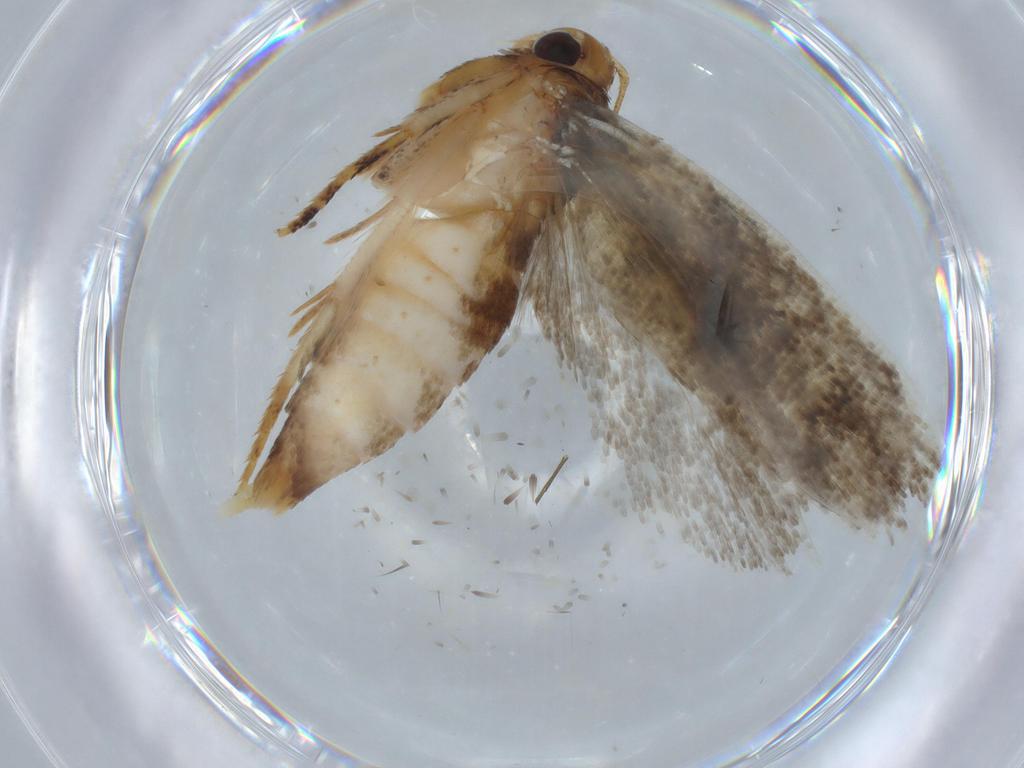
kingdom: Animalia
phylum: Arthropoda
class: Insecta
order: Lepidoptera
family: Gelechiidae
